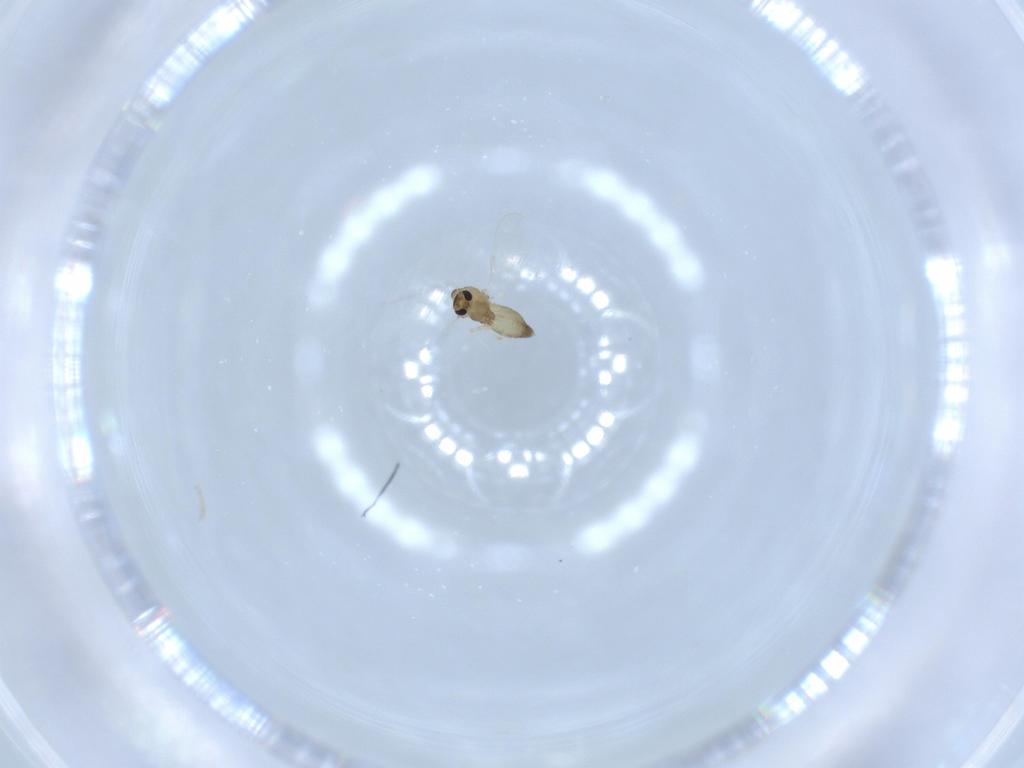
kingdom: Animalia
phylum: Arthropoda
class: Insecta
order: Diptera
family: Chironomidae
